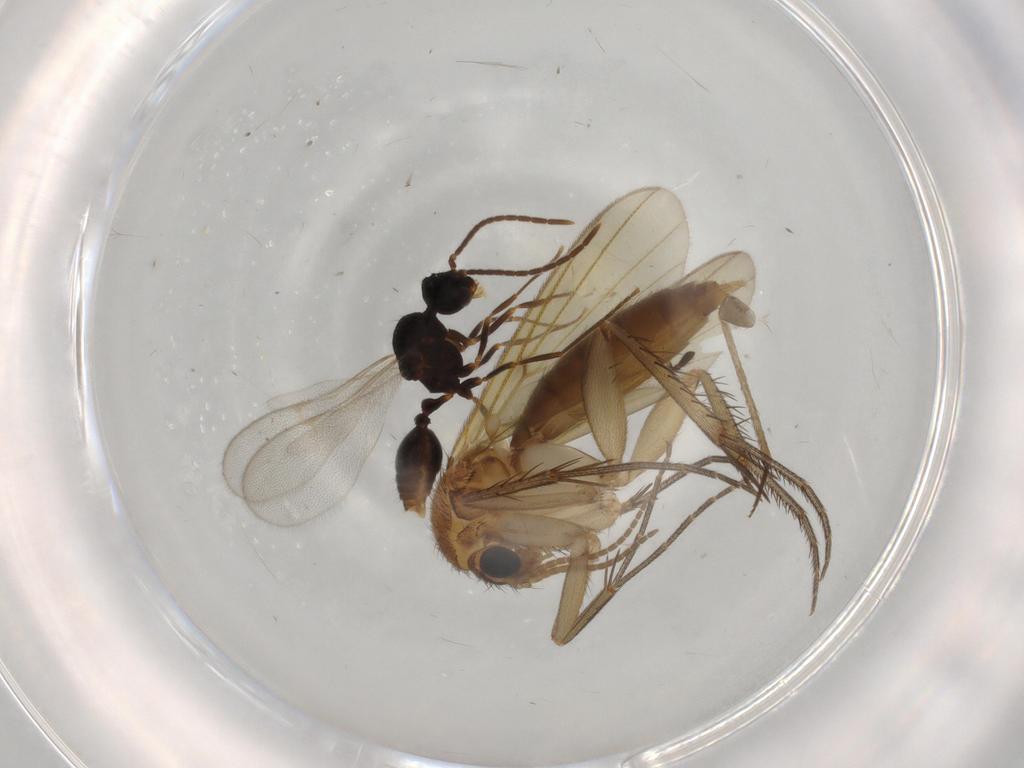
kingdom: Animalia
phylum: Arthropoda
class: Insecta
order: Diptera
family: Mycetophilidae
